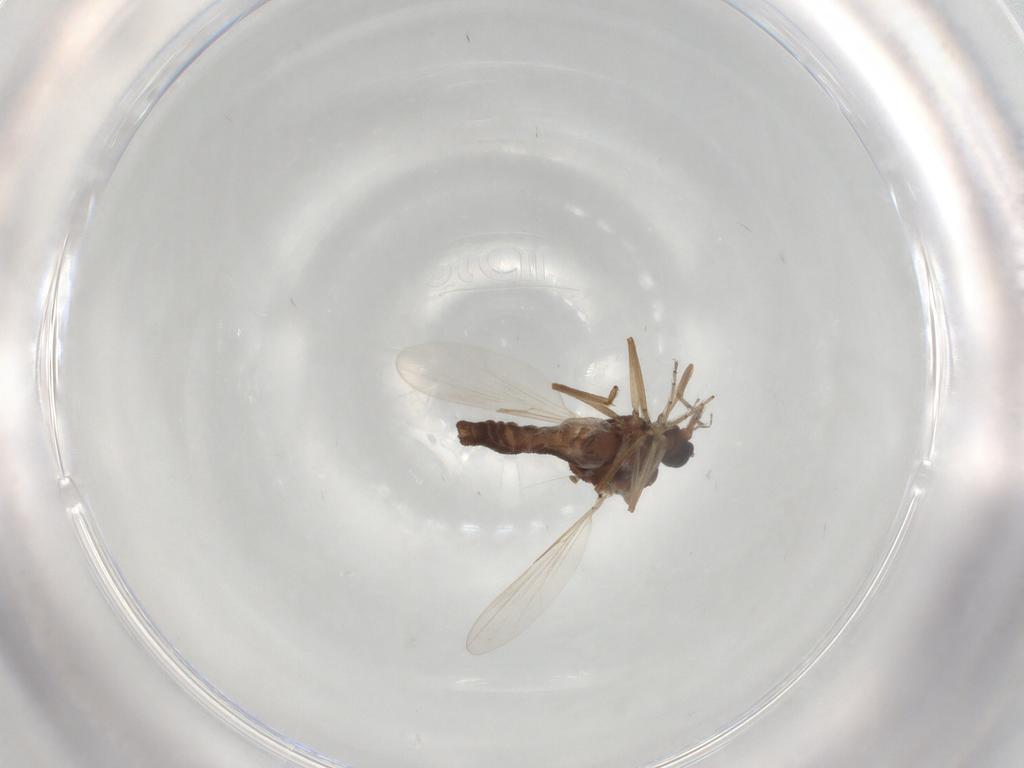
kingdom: Animalia
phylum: Arthropoda
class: Insecta
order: Diptera
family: Ceratopogonidae
